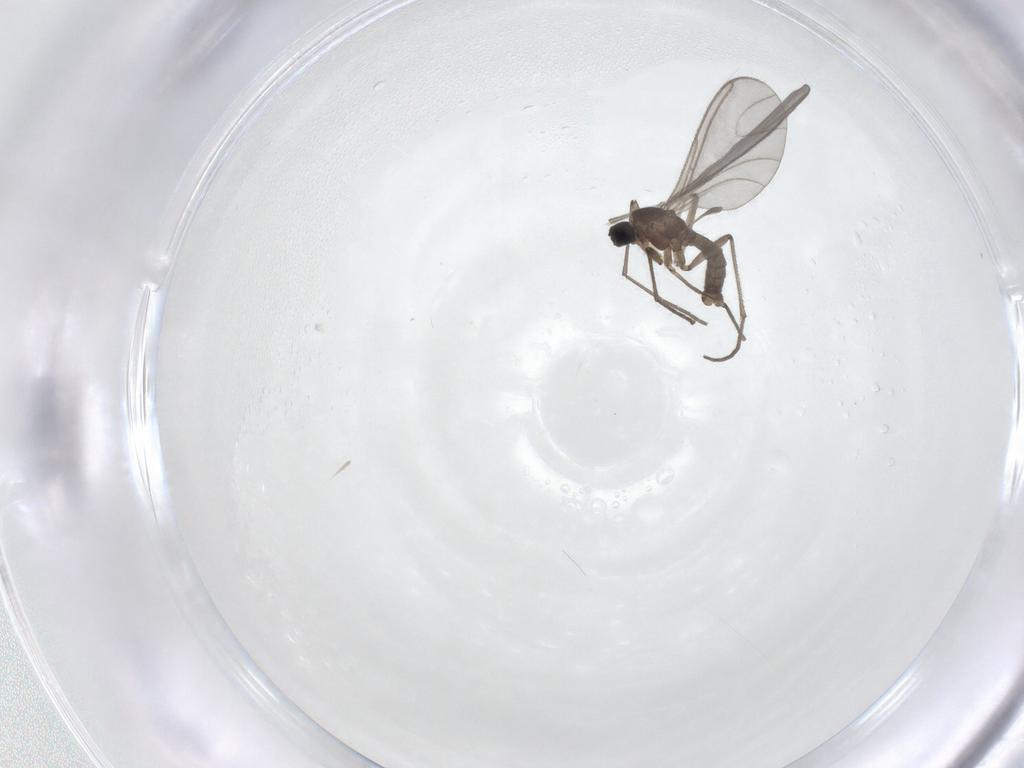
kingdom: Animalia
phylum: Arthropoda
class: Insecta
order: Diptera
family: Sciaridae
